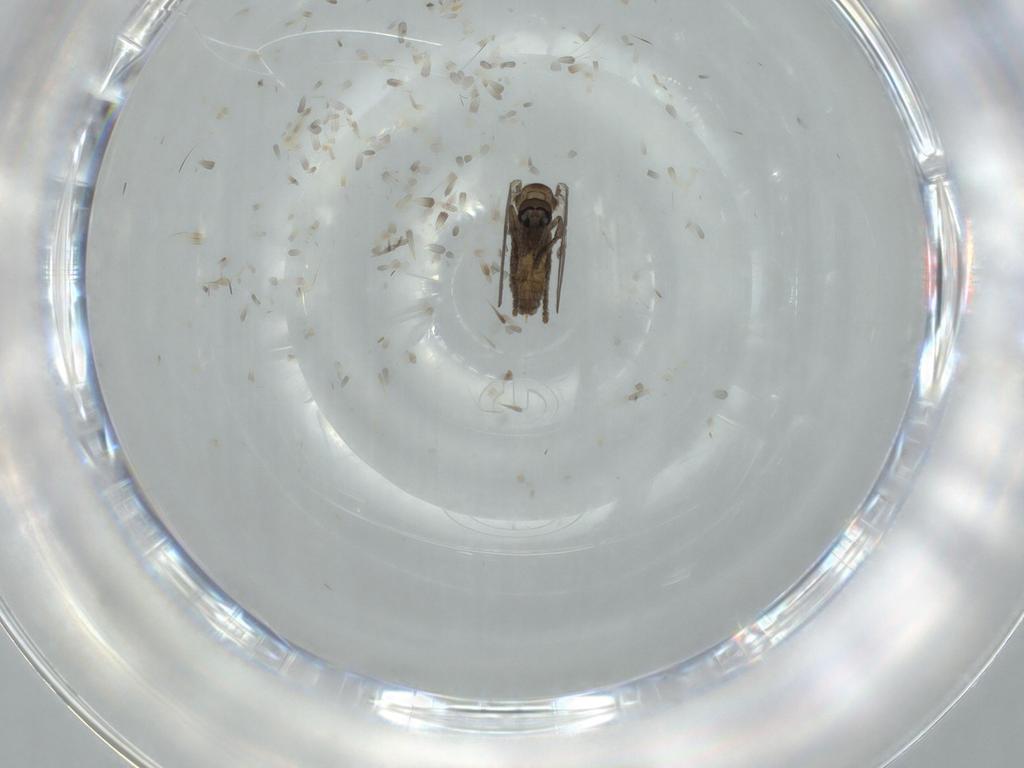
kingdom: Animalia
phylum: Arthropoda
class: Insecta
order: Diptera
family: Psychodidae
